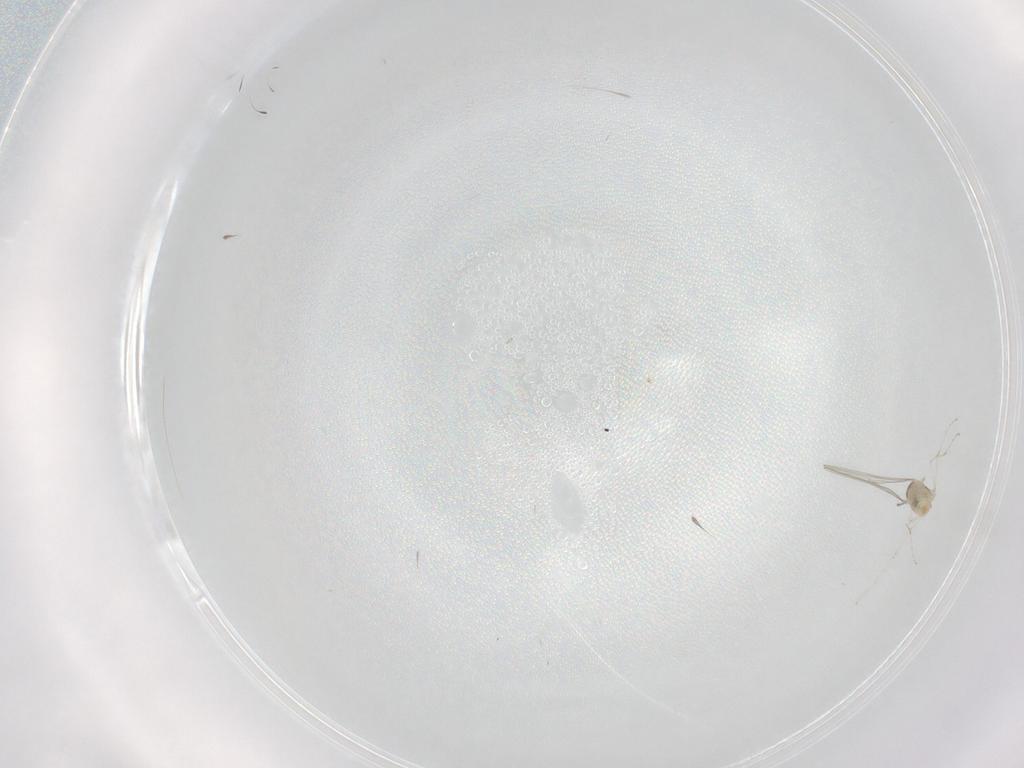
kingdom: Animalia
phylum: Arthropoda
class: Insecta
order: Diptera
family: Cecidomyiidae
